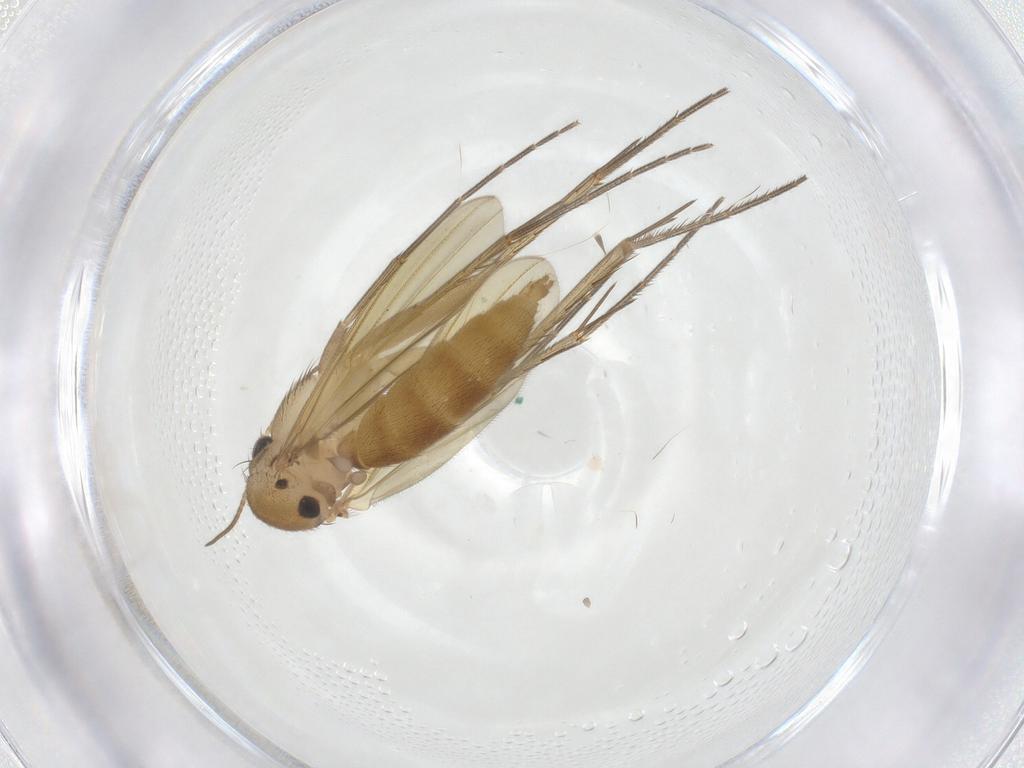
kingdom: Animalia
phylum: Arthropoda
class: Insecta
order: Diptera
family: Mycetophilidae
